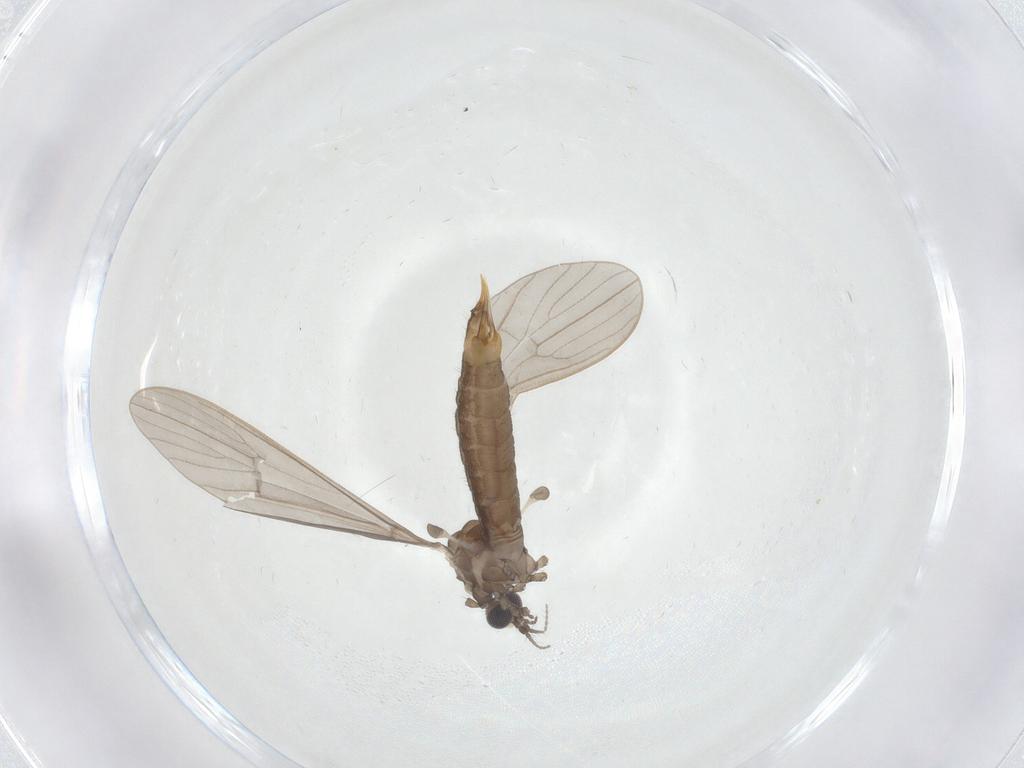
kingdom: Animalia
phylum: Arthropoda
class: Insecta
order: Diptera
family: Limoniidae
